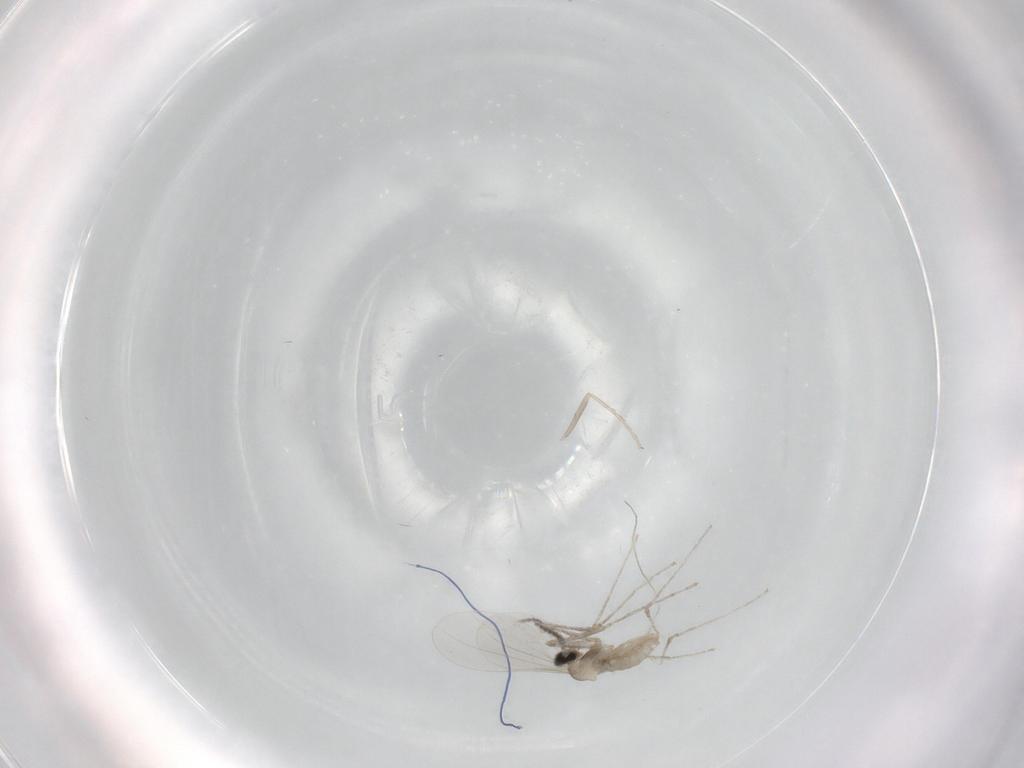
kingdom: Animalia
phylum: Arthropoda
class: Insecta
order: Diptera
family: Cecidomyiidae
